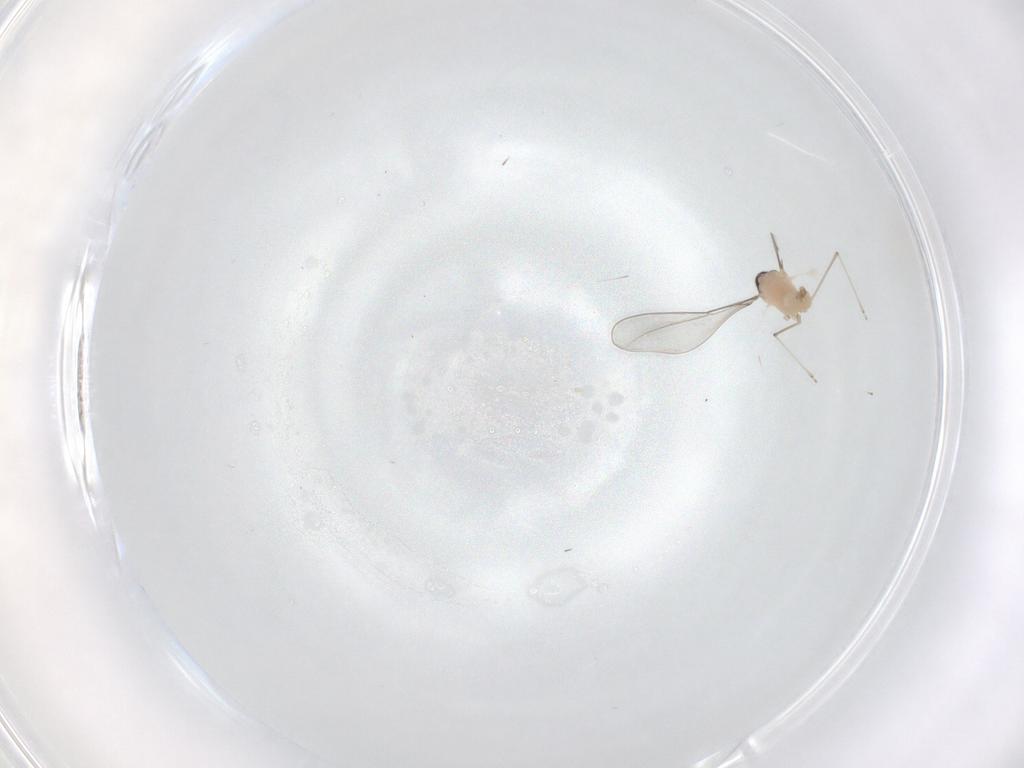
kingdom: Animalia
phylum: Arthropoda
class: Insecta
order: Diptera
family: Cecidomyiidae
